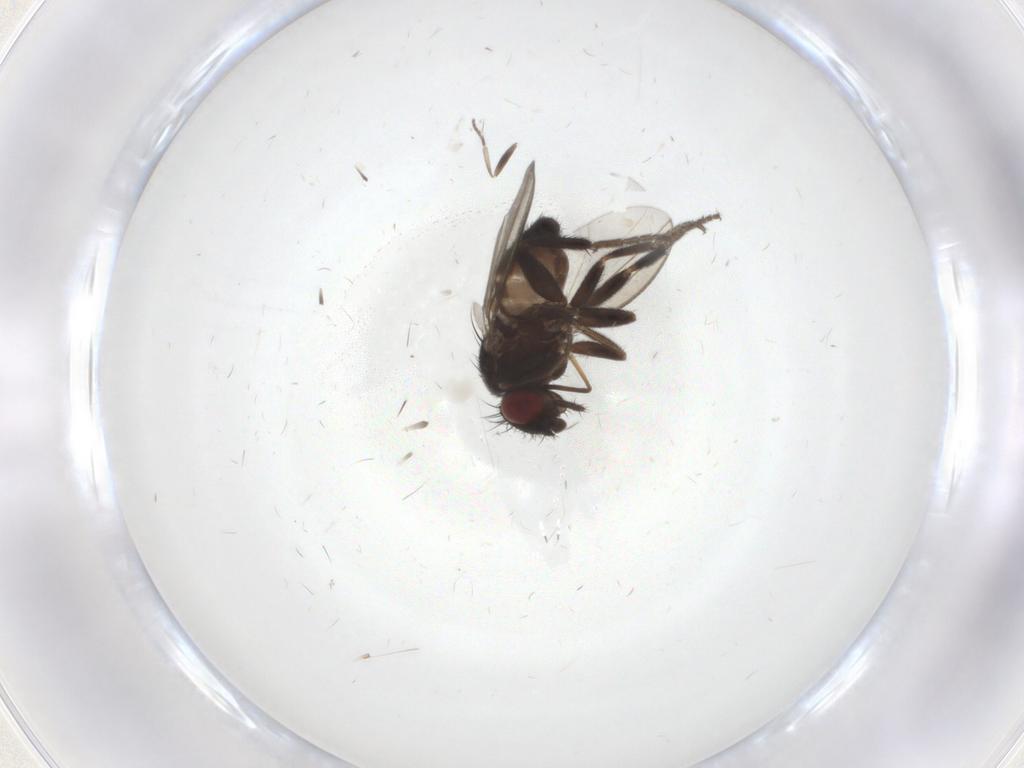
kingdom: Animalia
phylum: Arthropoda
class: Insecta
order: Diptera
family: Milichiidae
